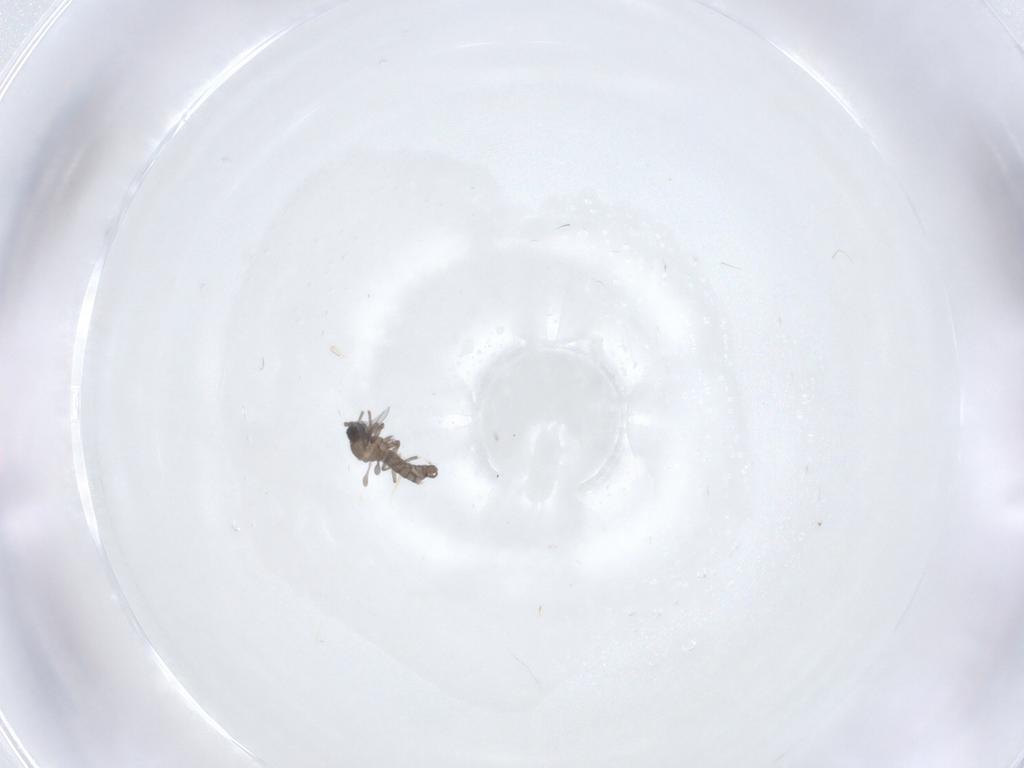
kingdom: Animalia
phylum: Arthropoda
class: Insecta
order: Diptera
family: Sciaridae
